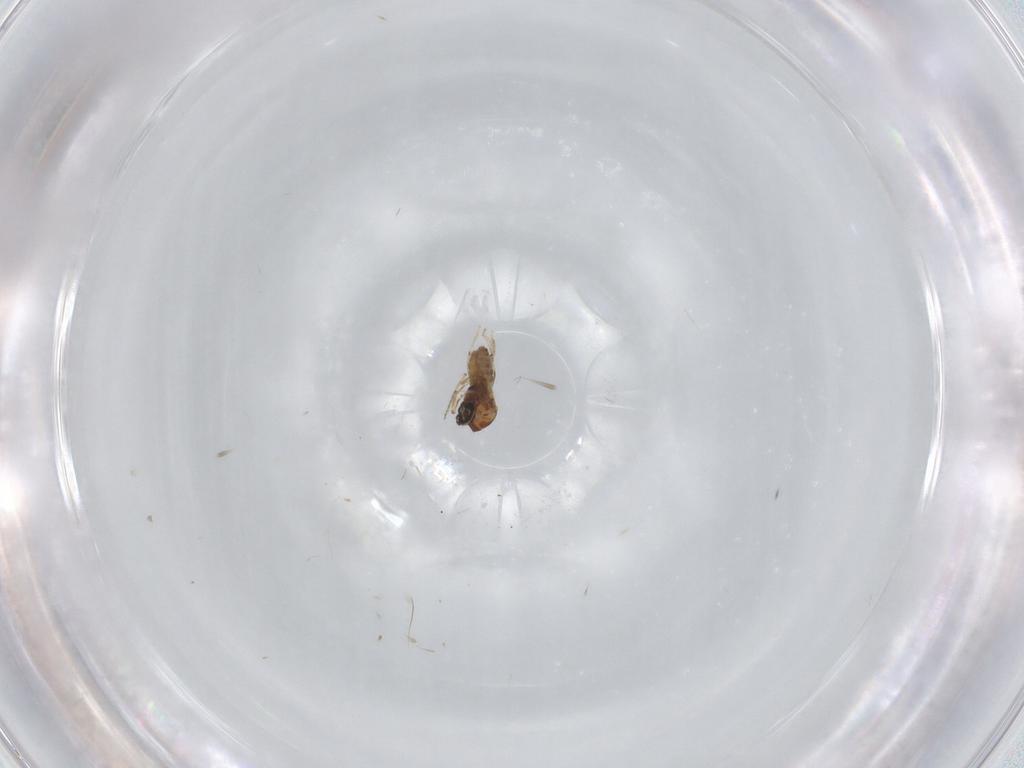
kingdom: Animalia
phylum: Arthropoda
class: Insecta
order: Diptera
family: Ceratopogonidae
